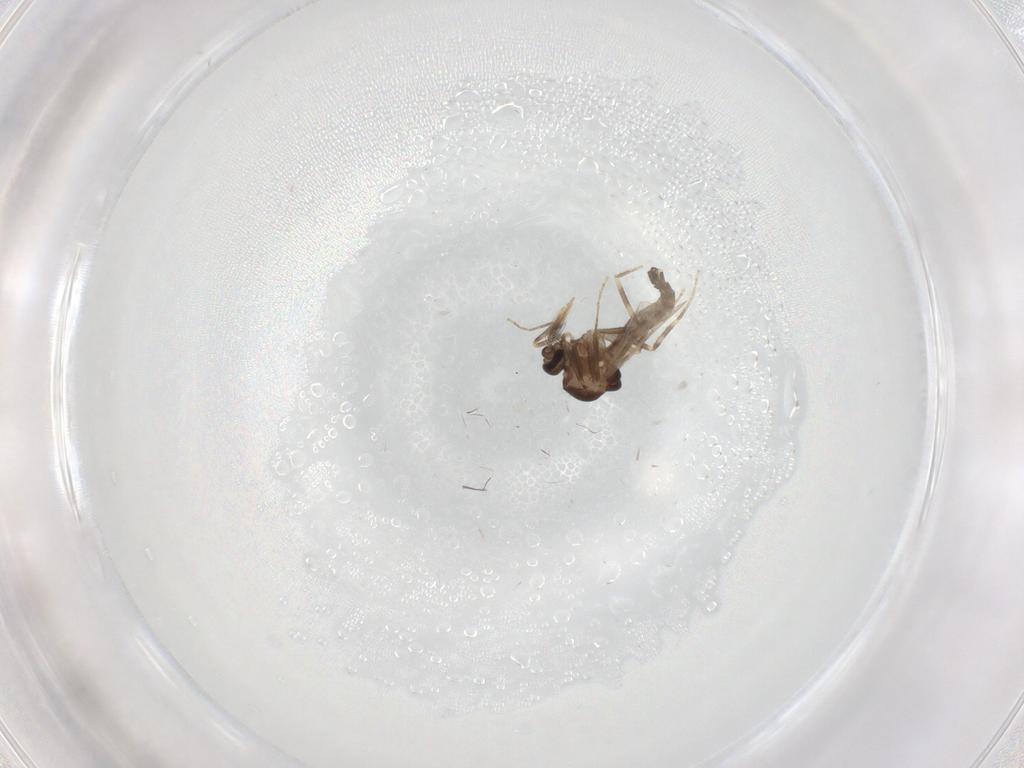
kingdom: Animalia
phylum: Arthropoda
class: Insecta
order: Diptera
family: Ceratopogonidae
